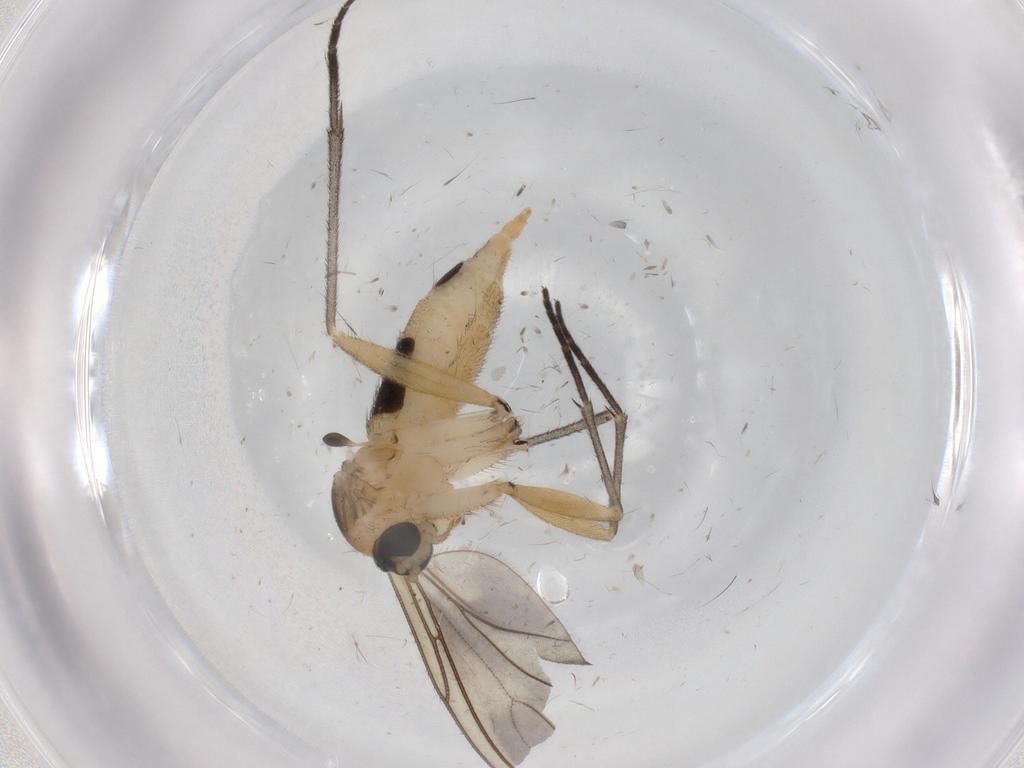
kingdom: Animalia
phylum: Arthropoda
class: Insecta
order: Diptera
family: Sciaridae
